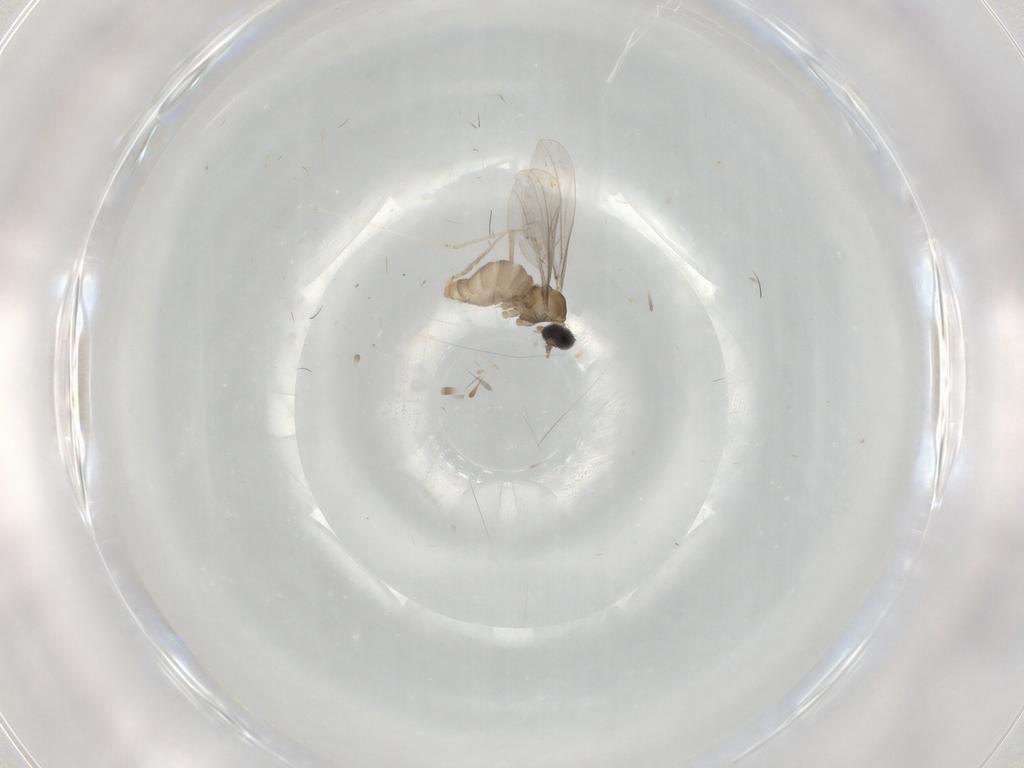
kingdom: Animalia
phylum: Arthropoda
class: Insecta
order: Diptera
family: Cecidomyiidae
